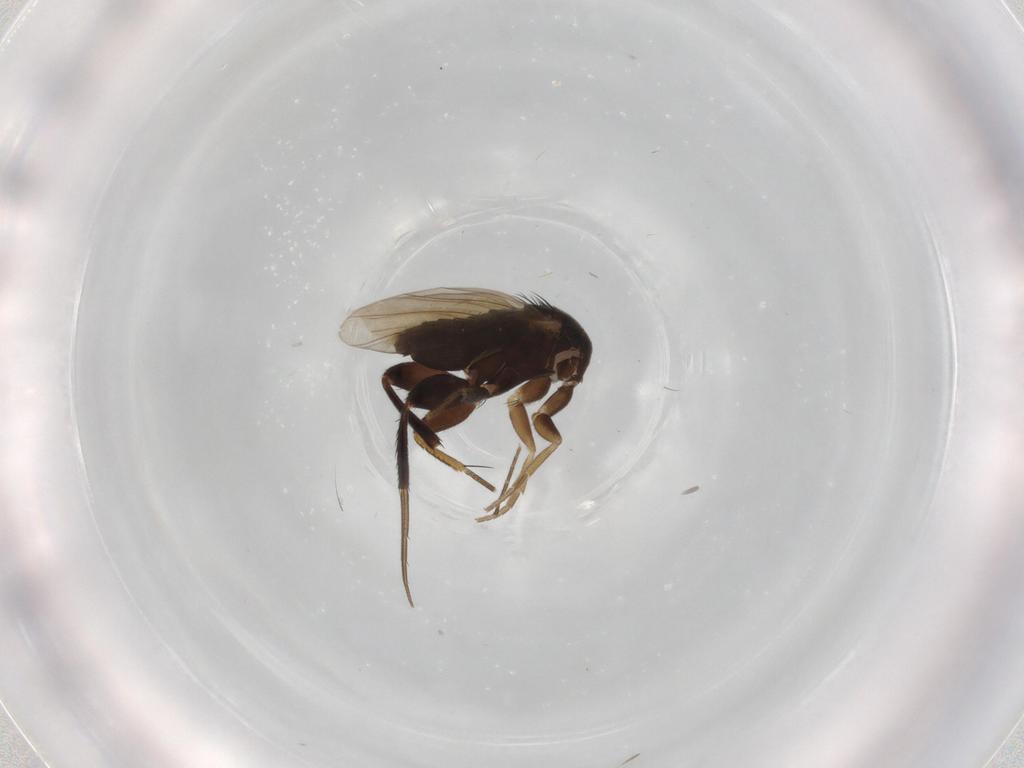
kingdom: Animalia
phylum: Arthropoda
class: Insecta
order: Diptera
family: Phoridae
